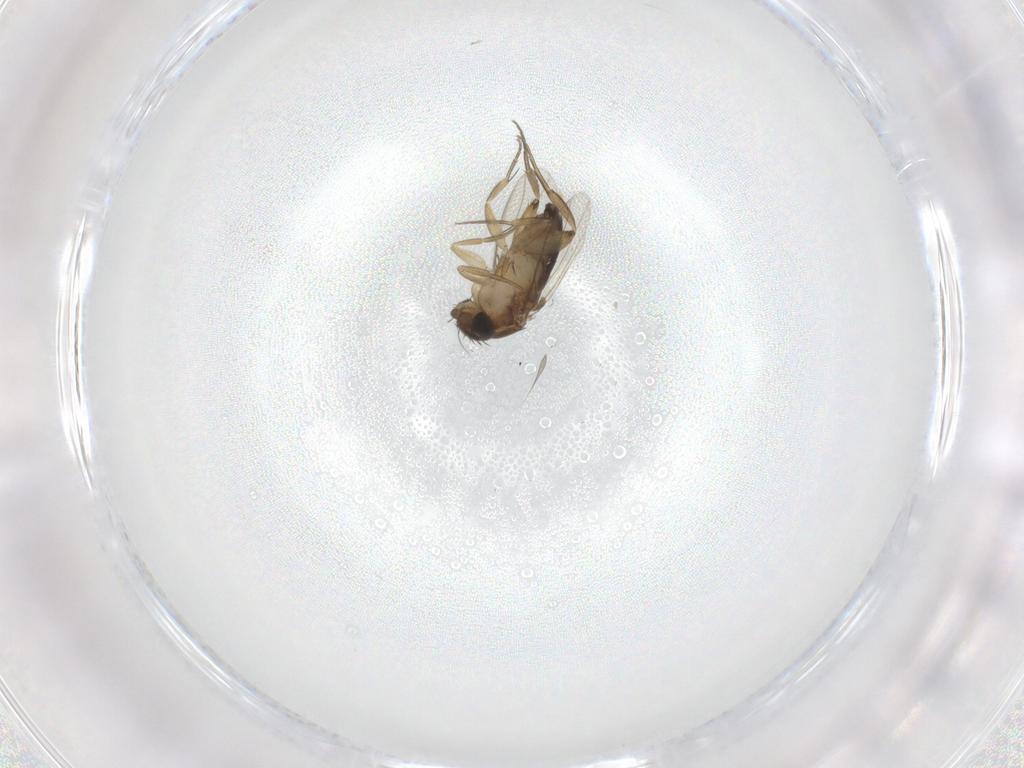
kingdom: Animalia
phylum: Arthropoda
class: Insecta
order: Diptera
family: Phoridae
